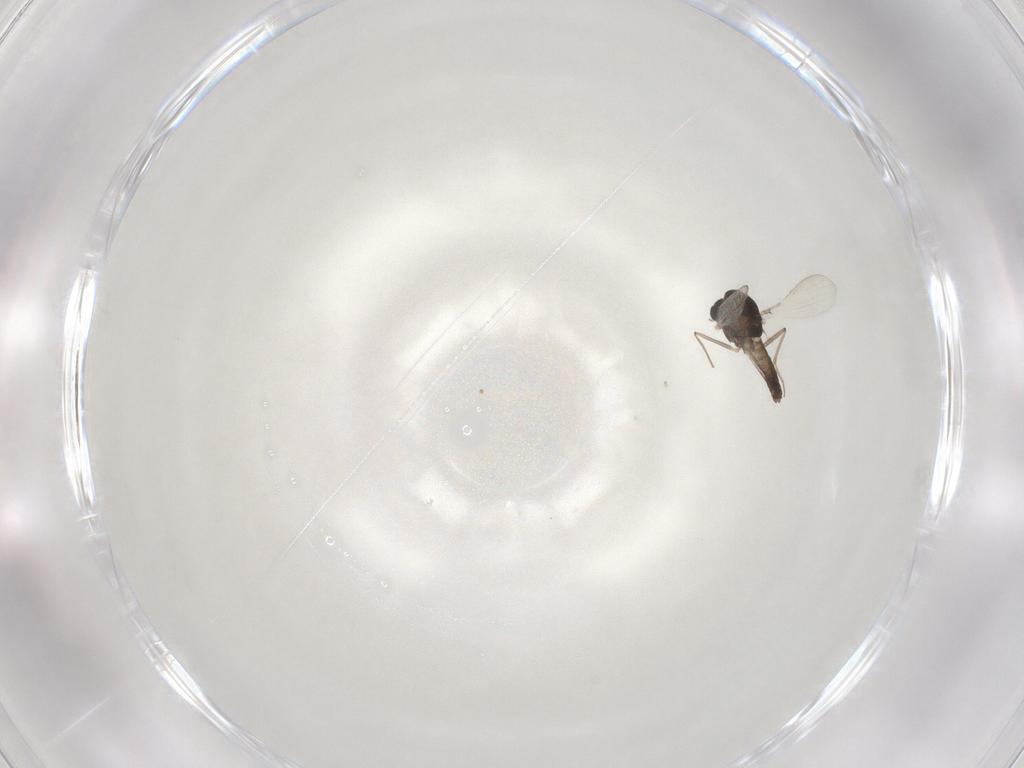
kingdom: Animalia
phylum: Arthropoda
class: Insecta
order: Diptera
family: Chironomidae
